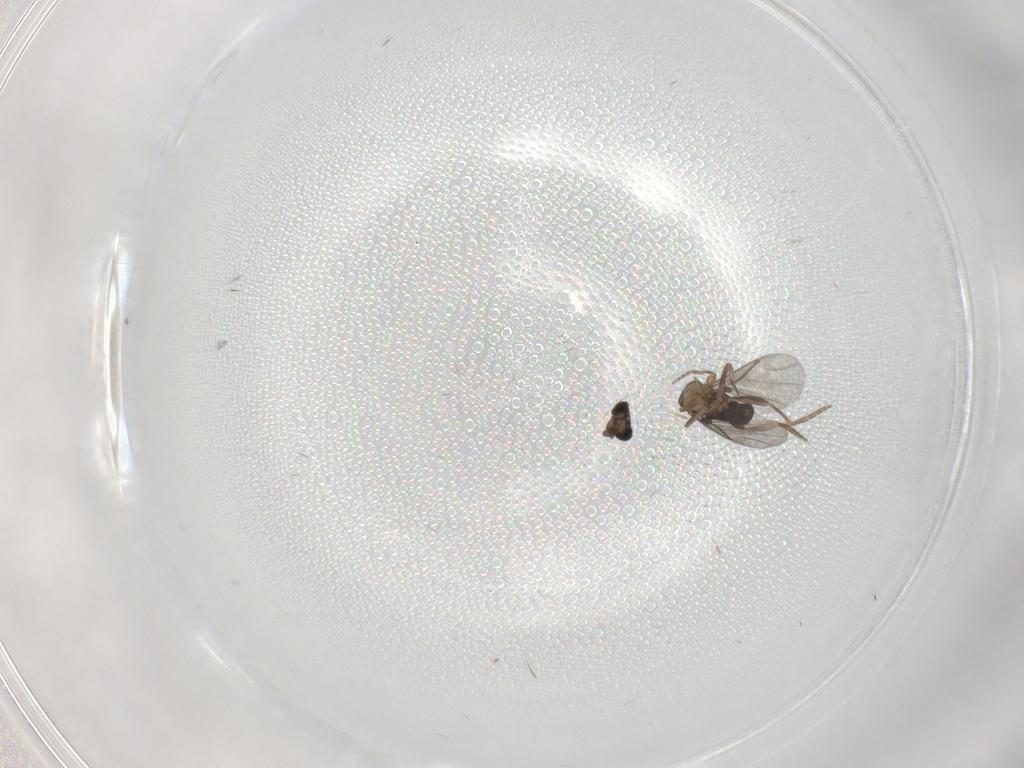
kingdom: Animalia
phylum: Arthropoda
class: Insecta
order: Diptera
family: Phoridae
